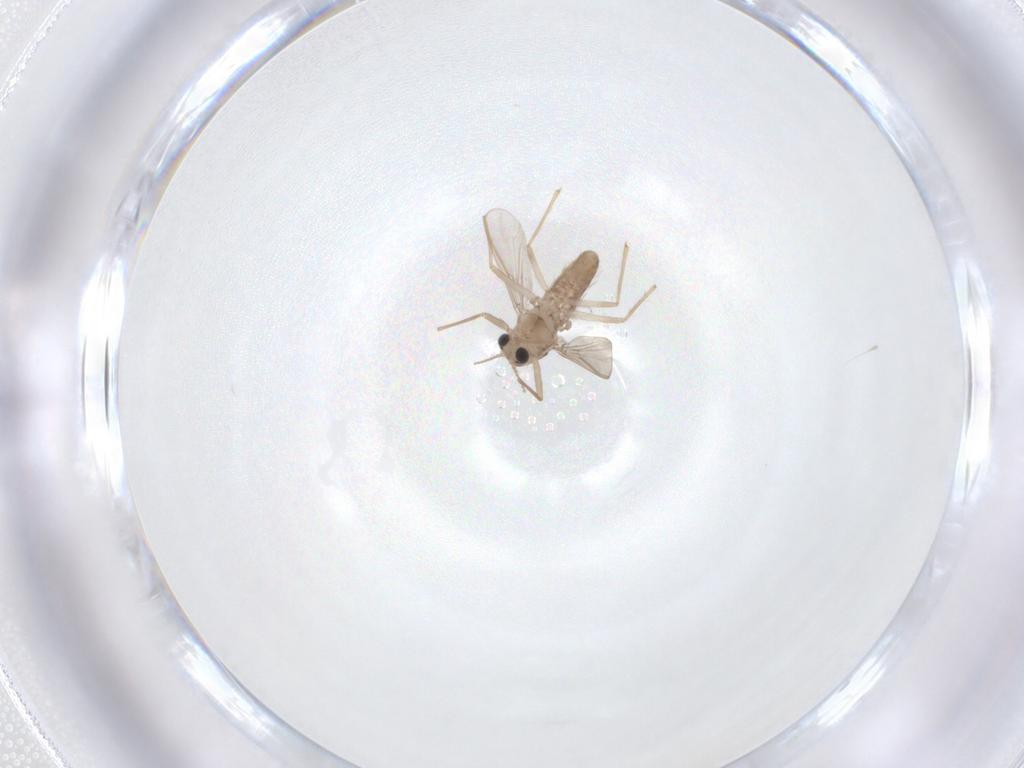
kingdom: Animalia
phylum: Arthropoda
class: Insecta
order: Diptera
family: Chironomidae
